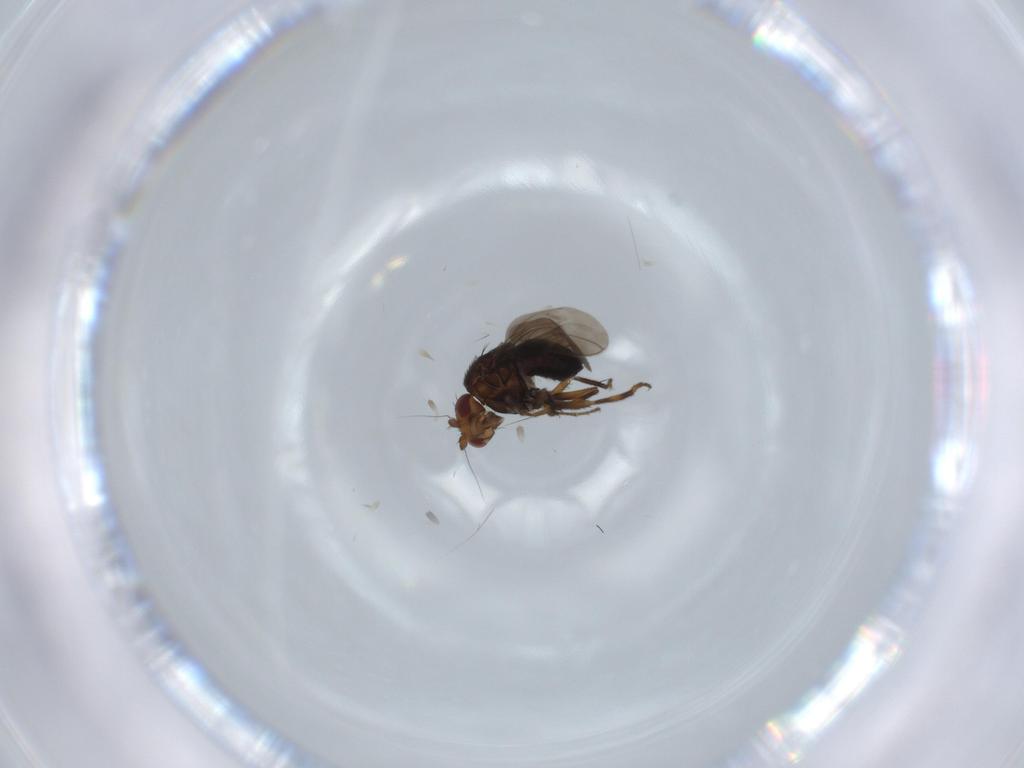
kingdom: Animalia
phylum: Arthropoda
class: Insecta
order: Diptera
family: Sphaeroceridae
